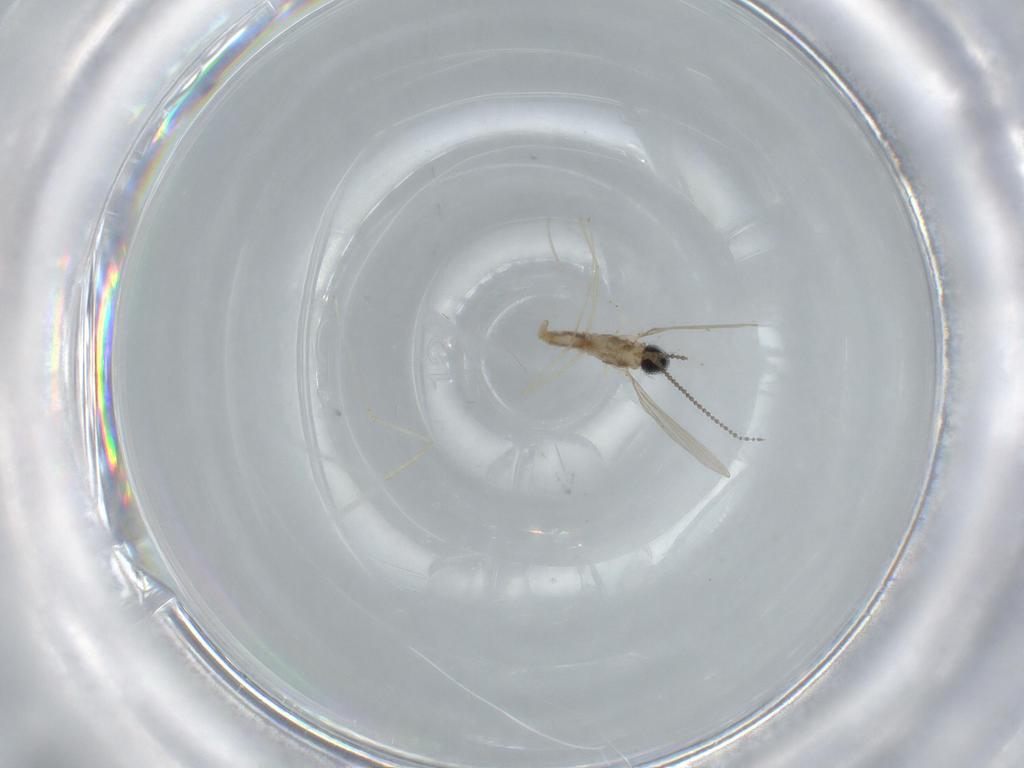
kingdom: Animalia
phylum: Arthropoda
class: Insecta
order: Diptera
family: Cecidomyiidae
